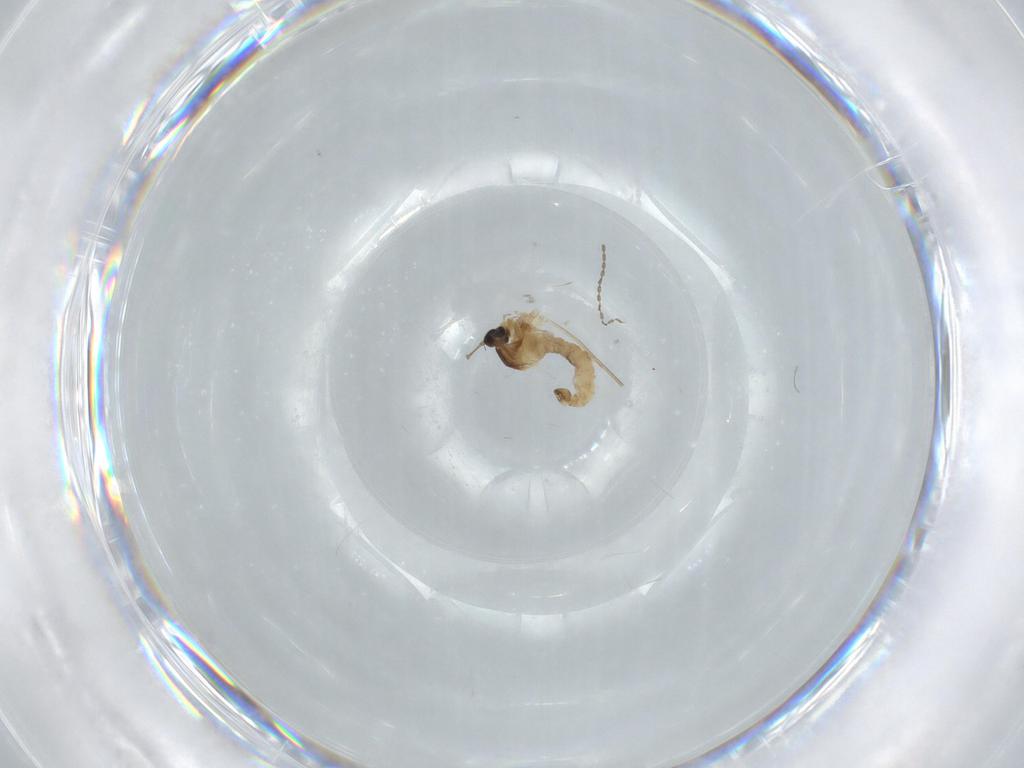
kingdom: Animalia
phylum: Arthropoda
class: Insecta
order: Diptera
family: Cecidomyiidae
